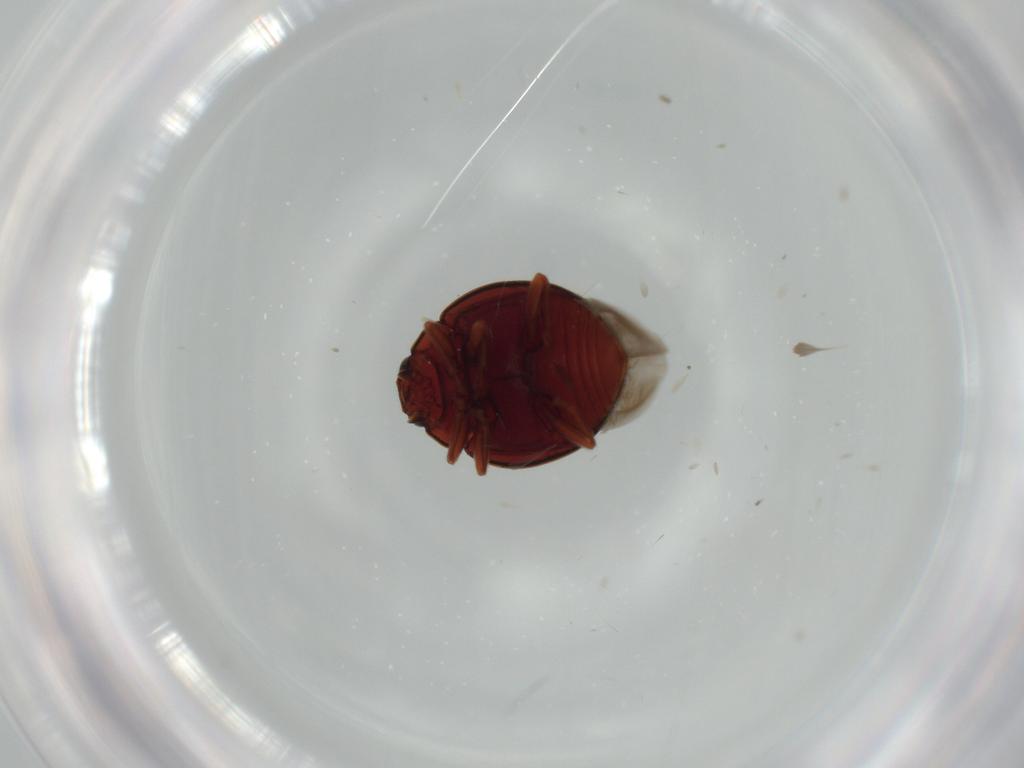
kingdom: Animalia
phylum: Arthropoda
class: Insecta
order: Coleoptera
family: Coccinellidae
